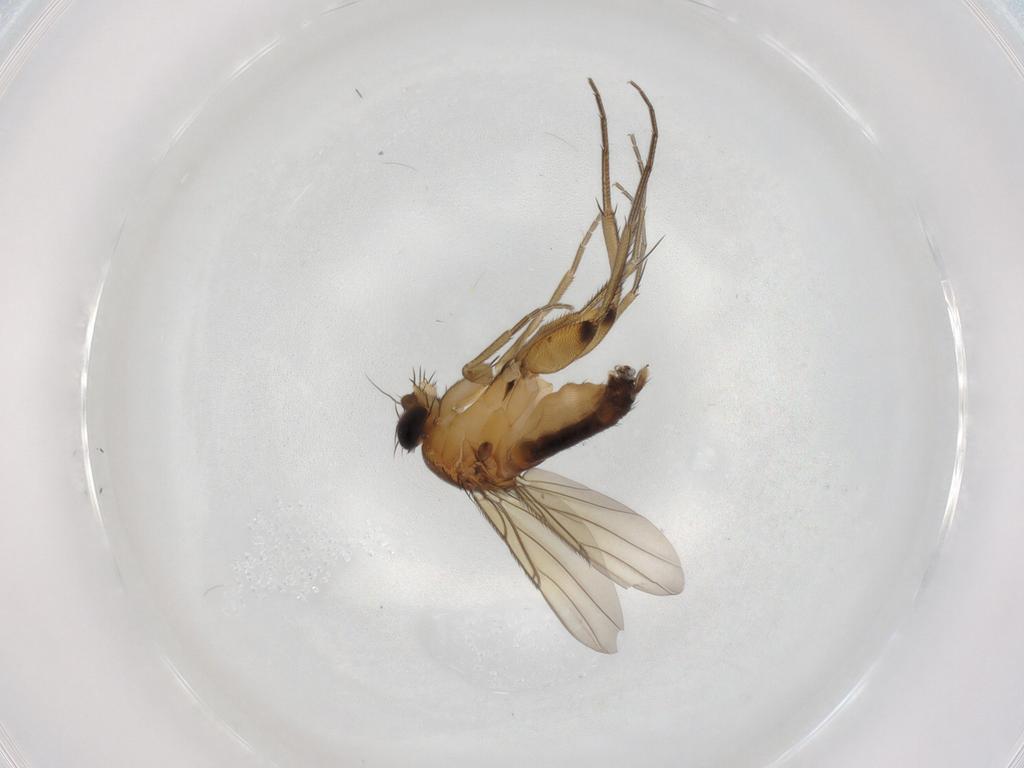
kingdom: Animalia
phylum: Arthropoda
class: Insecta
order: Diptera
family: Phoridae
